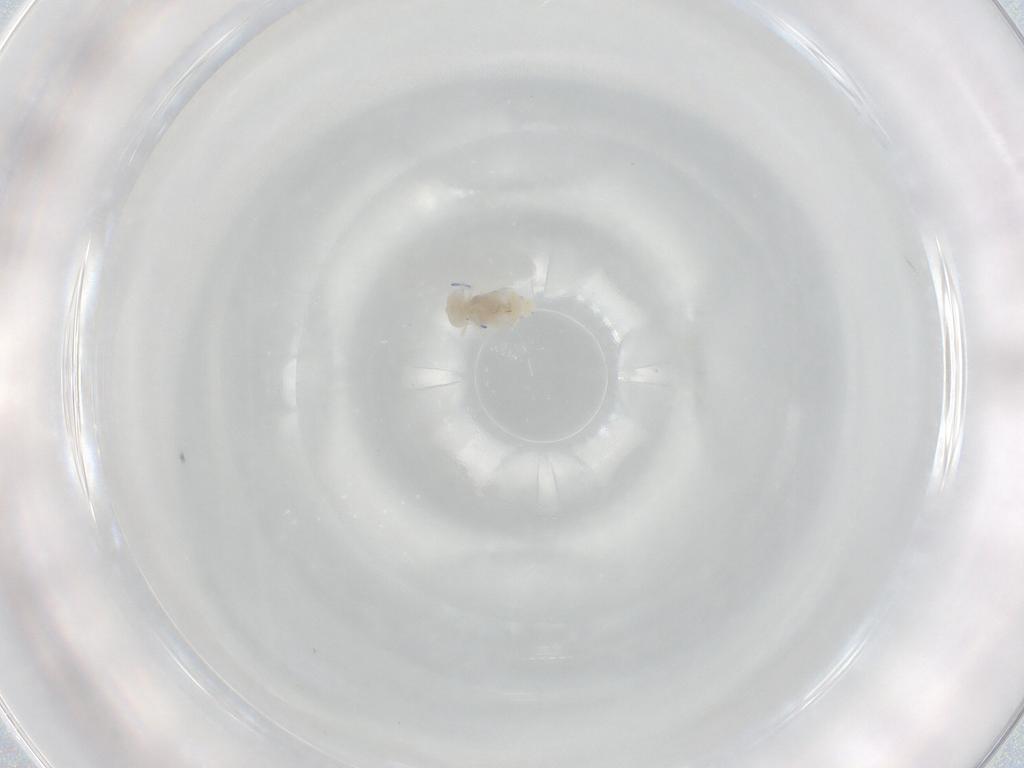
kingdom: Animalia
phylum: Arthropoda
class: Collembola
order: Entomobryomorpha
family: Entomobryidae
